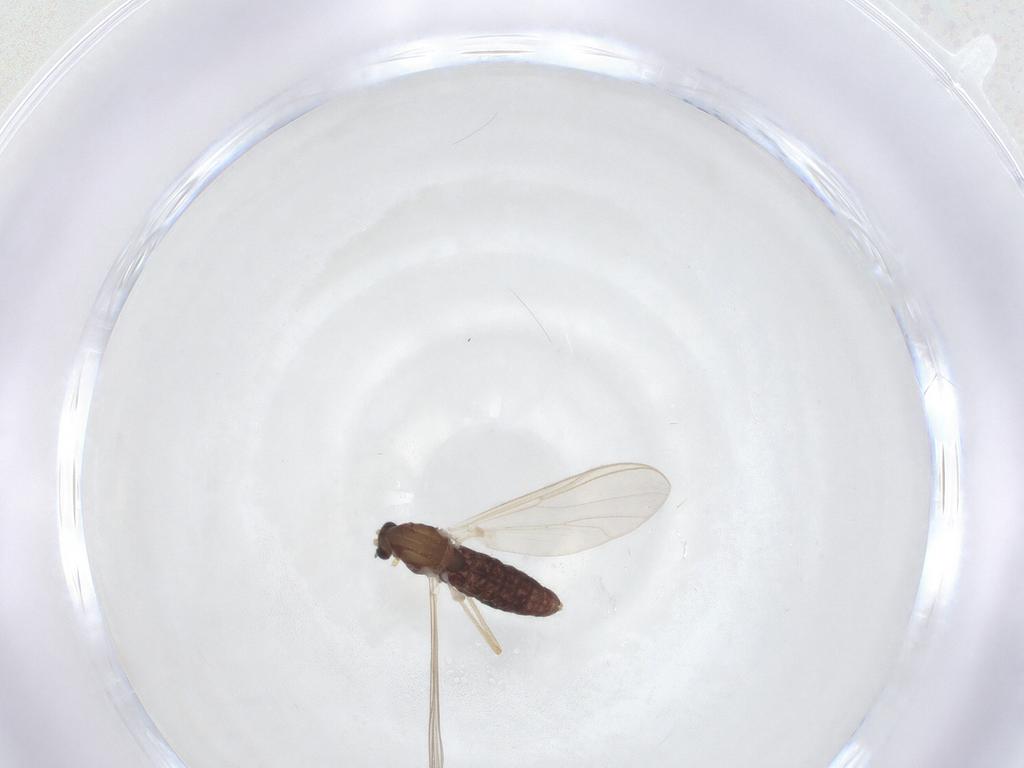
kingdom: Animalia
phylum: Arthropoda
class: Insecta
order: Diptera
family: Chironomidae
